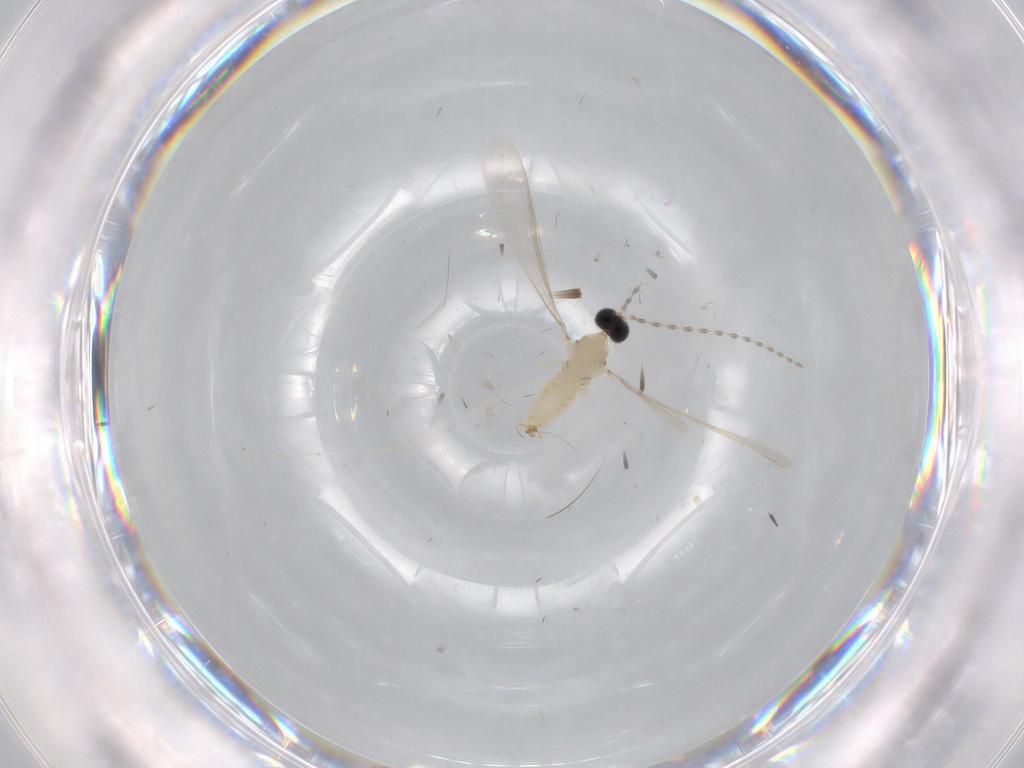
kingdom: Animalia
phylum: Arthropoda
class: Insecta
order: Diptera
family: Cecidomyiidae
